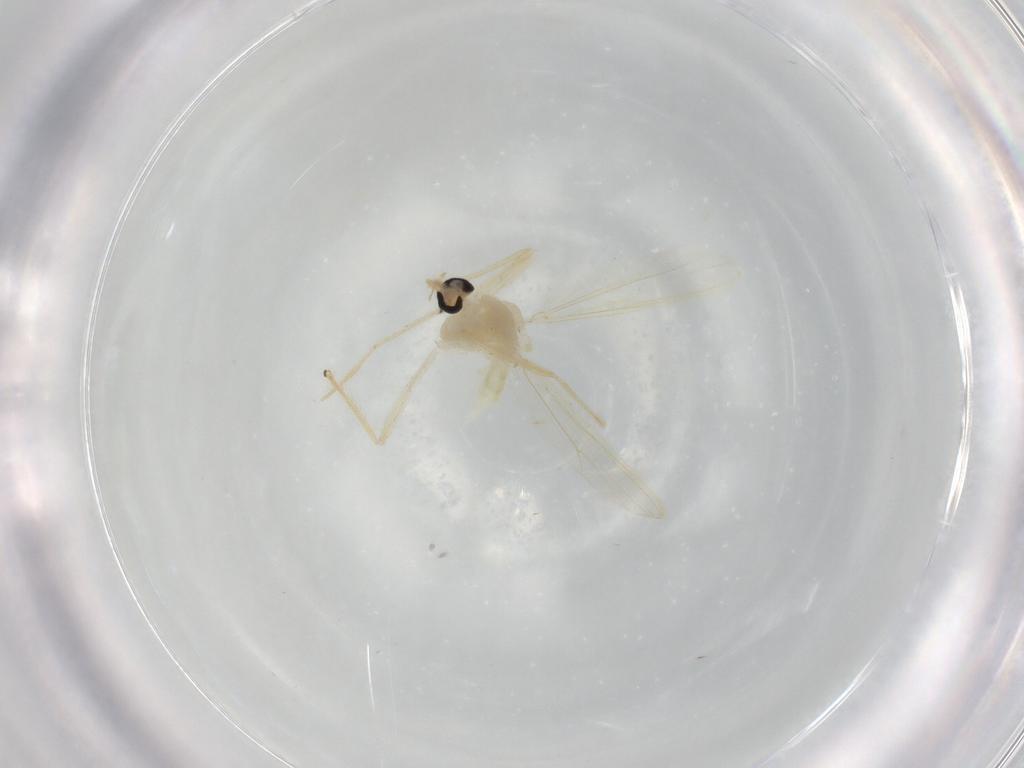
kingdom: Animalia
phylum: Arthropoda
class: Insecta
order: Diptera
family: Chironomidae
